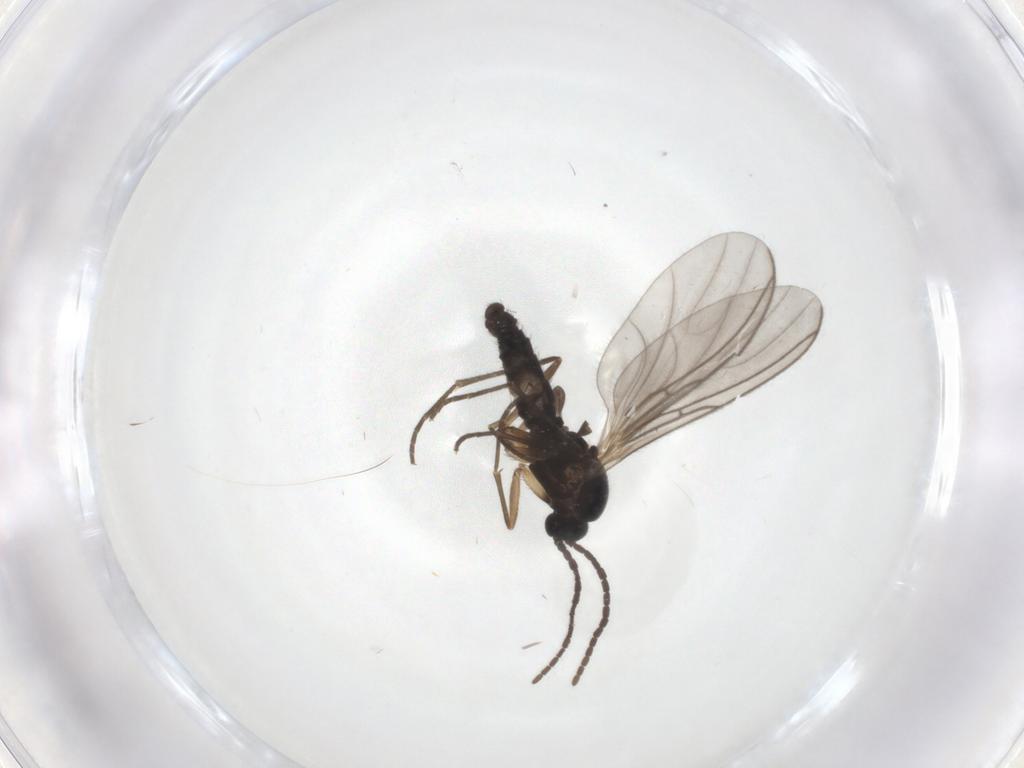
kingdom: Animalia
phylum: Arthropoda
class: Insecta
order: Diptera
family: Sciaridae
